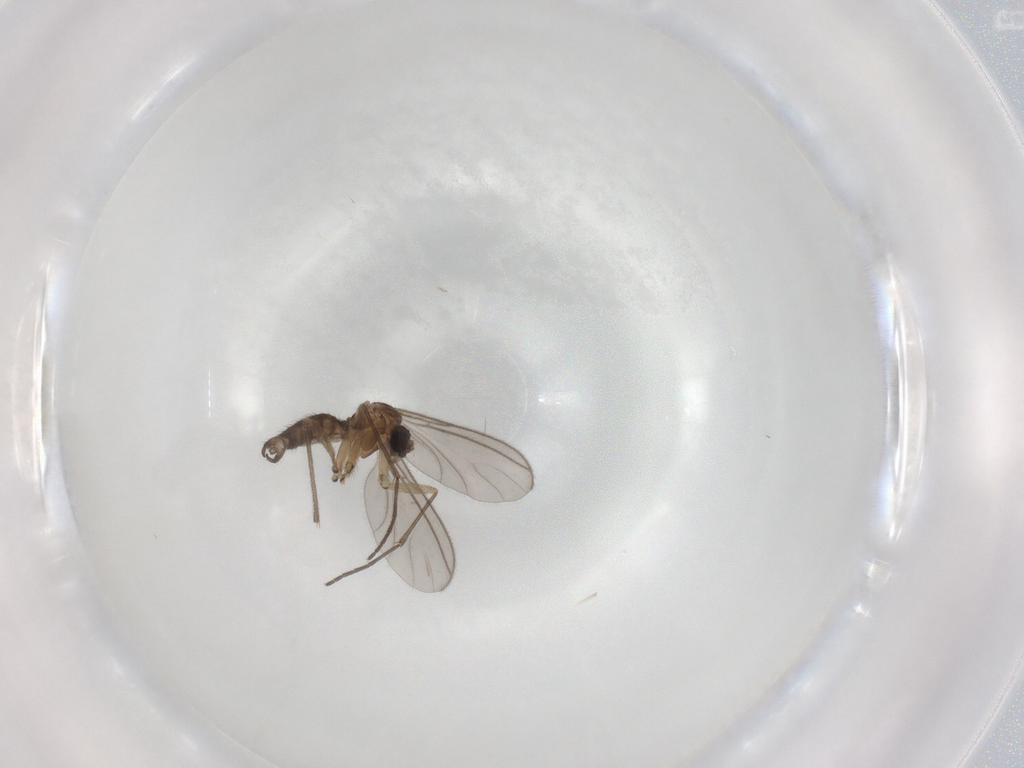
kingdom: Animalia
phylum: Arthropoda
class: Insecta
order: Diptera
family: Sciaridae
